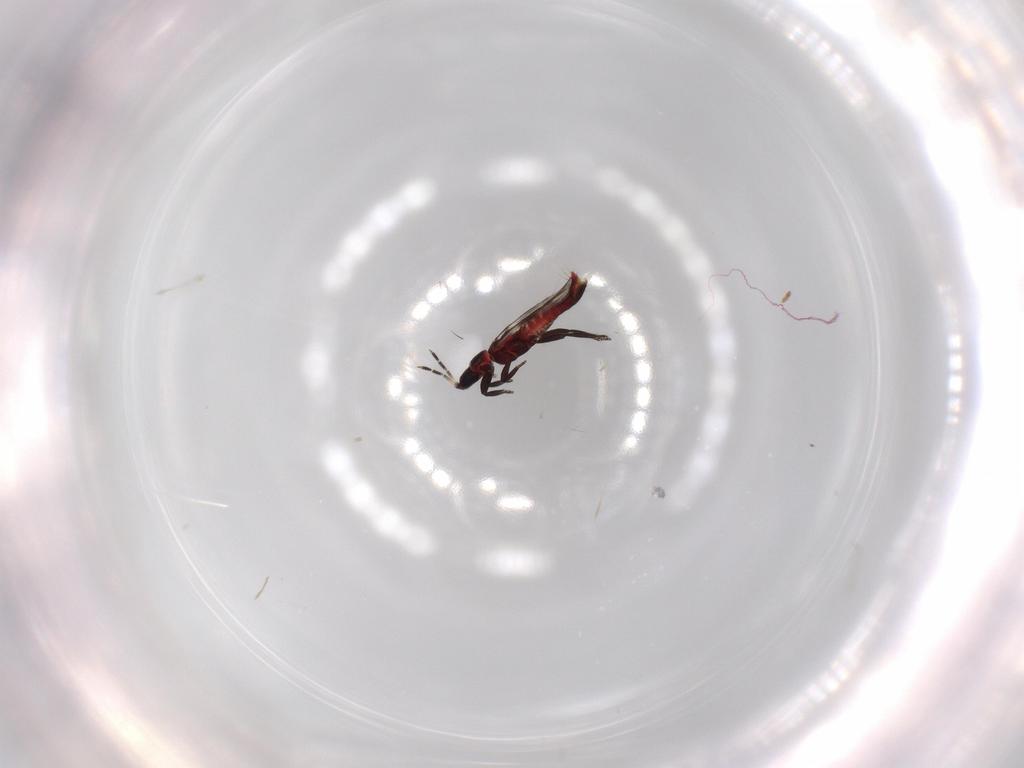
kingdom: Animalia
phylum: Arthropoda
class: Insecta
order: Thysanoptera
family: Aeolothripidae
